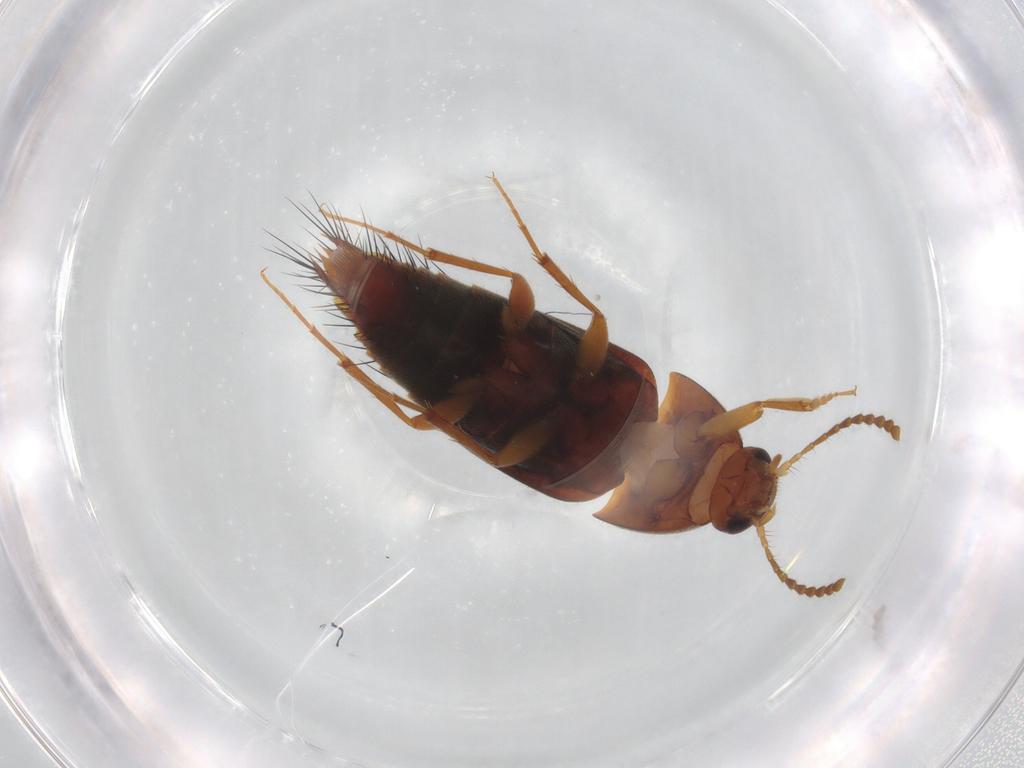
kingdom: Animalia
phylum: Arthropoda
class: Insecta
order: Coleoptera
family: Staphylinidae
